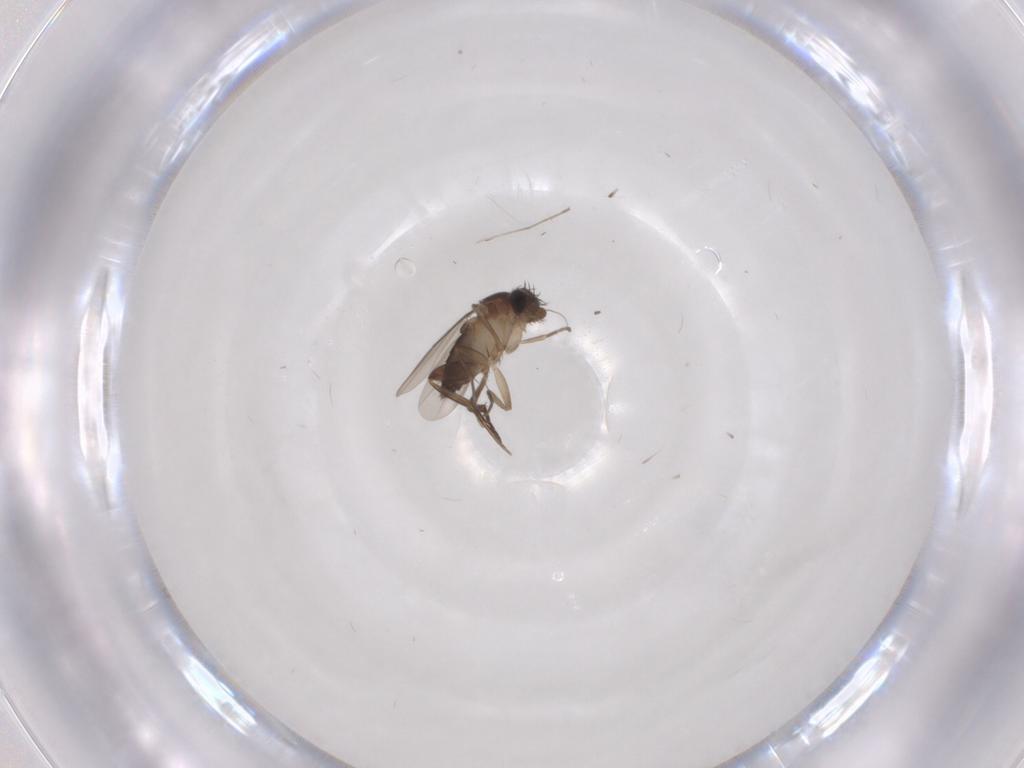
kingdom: Animalia
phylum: Arthropoda
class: Insecta
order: Diptera
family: Phoridae
